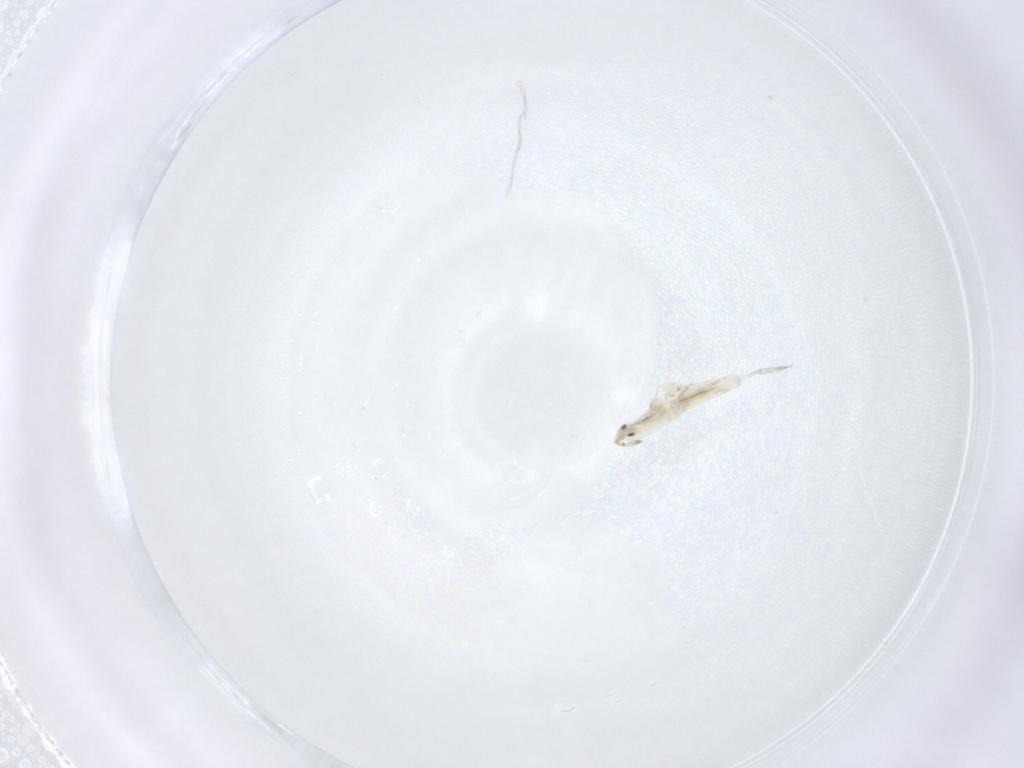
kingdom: Animalia
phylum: Arthropoda
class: Collembola
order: Entomobryomorpha
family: Entomobryidae
